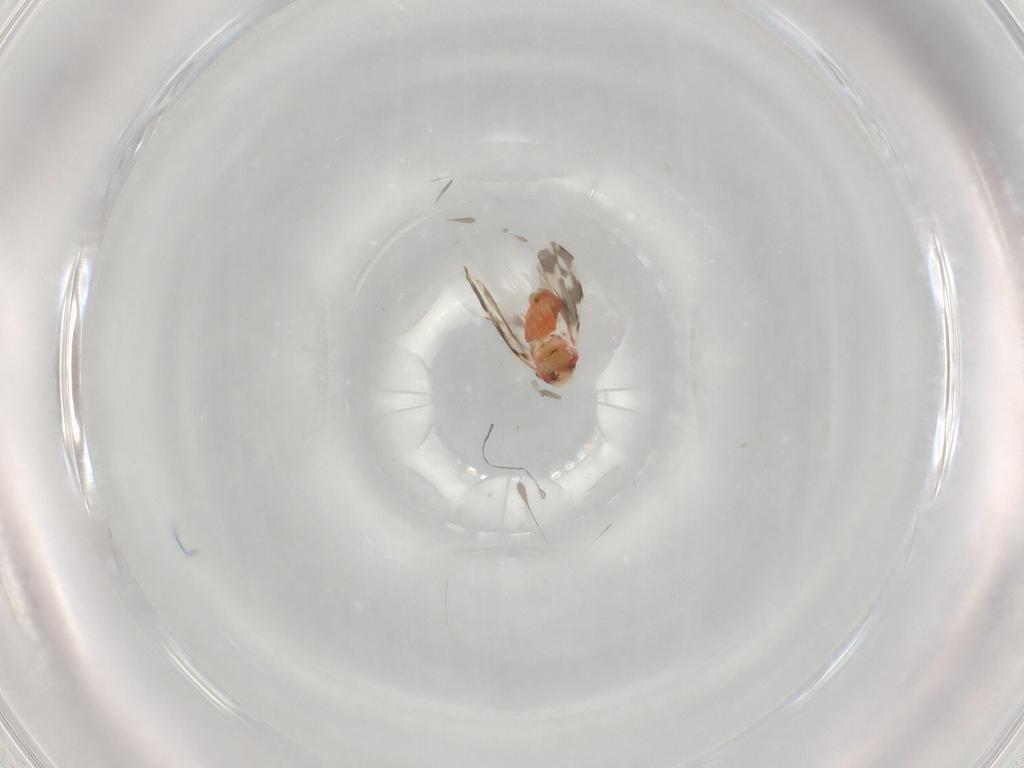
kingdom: Animalia
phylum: Arthropoda
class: Insecta
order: Hemiptera
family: Aleyrodidae
